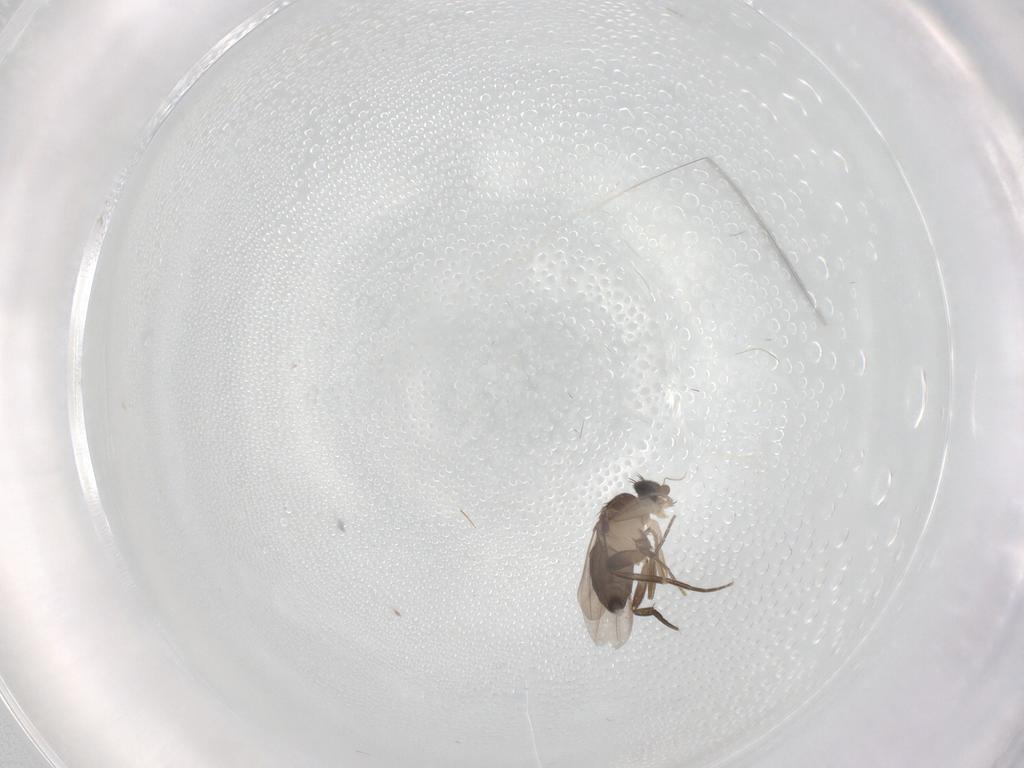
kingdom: Animalia
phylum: Arthropoda
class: Insecta
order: Diptera
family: Phoridae
